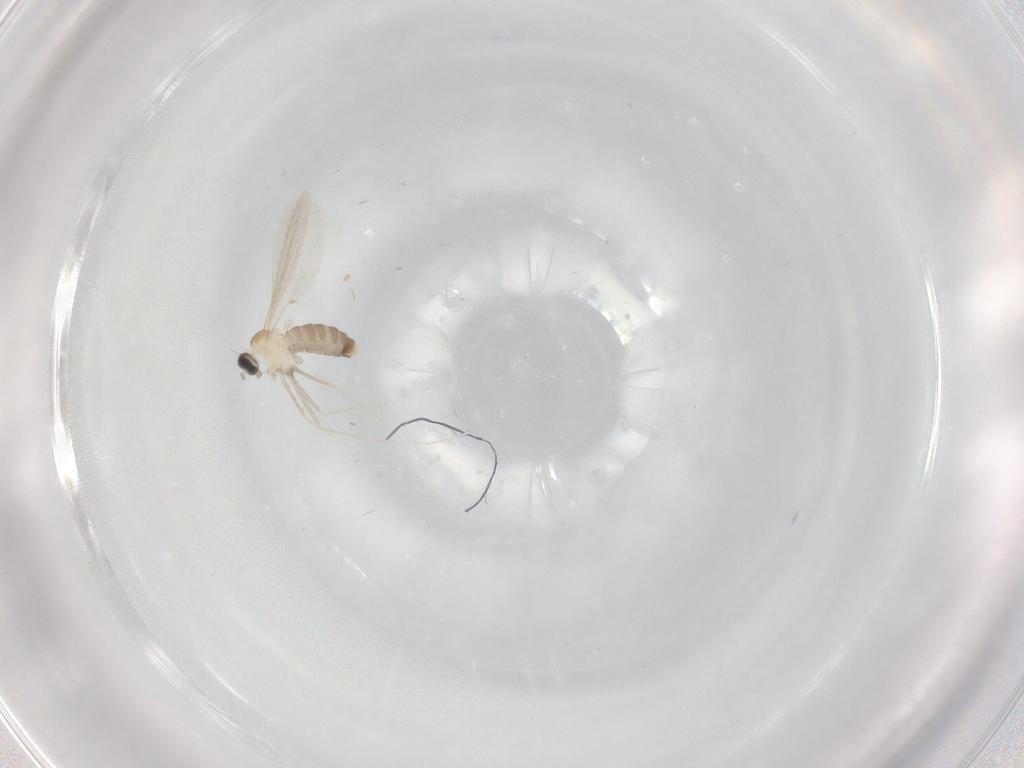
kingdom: Animalia
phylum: Arthropoda
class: Insecta
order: Diptera
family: Cecidomyiidae
